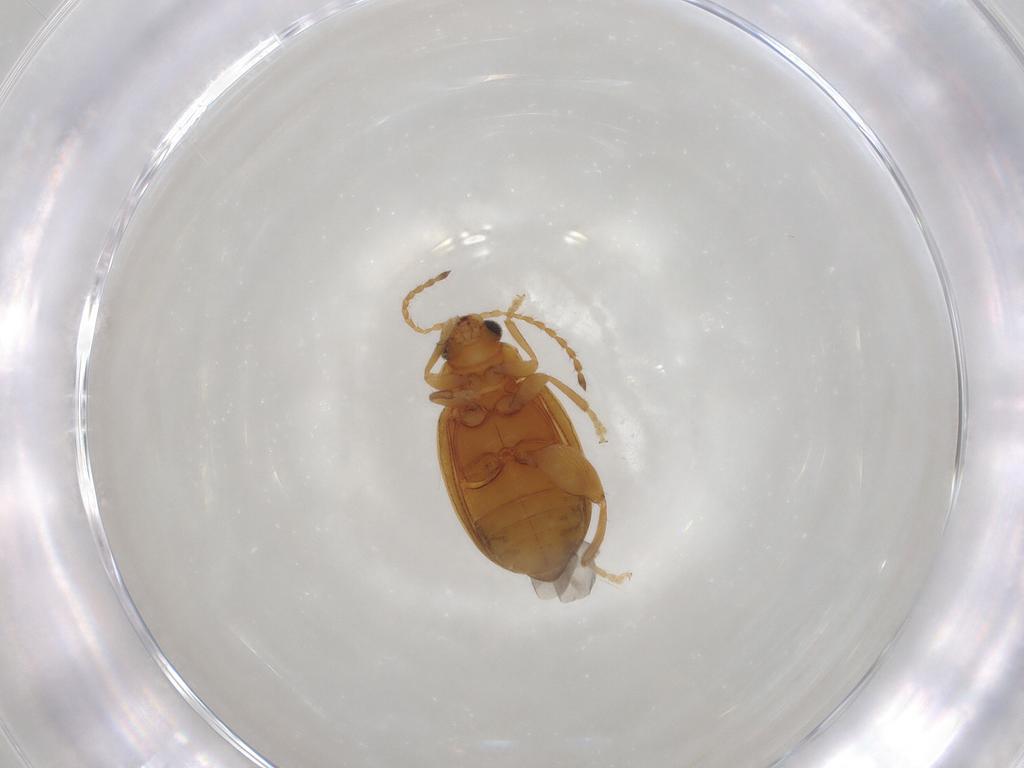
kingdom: Animalia
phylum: Arthropoda
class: Insecta
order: Coleoptera
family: Chrysomelidae
